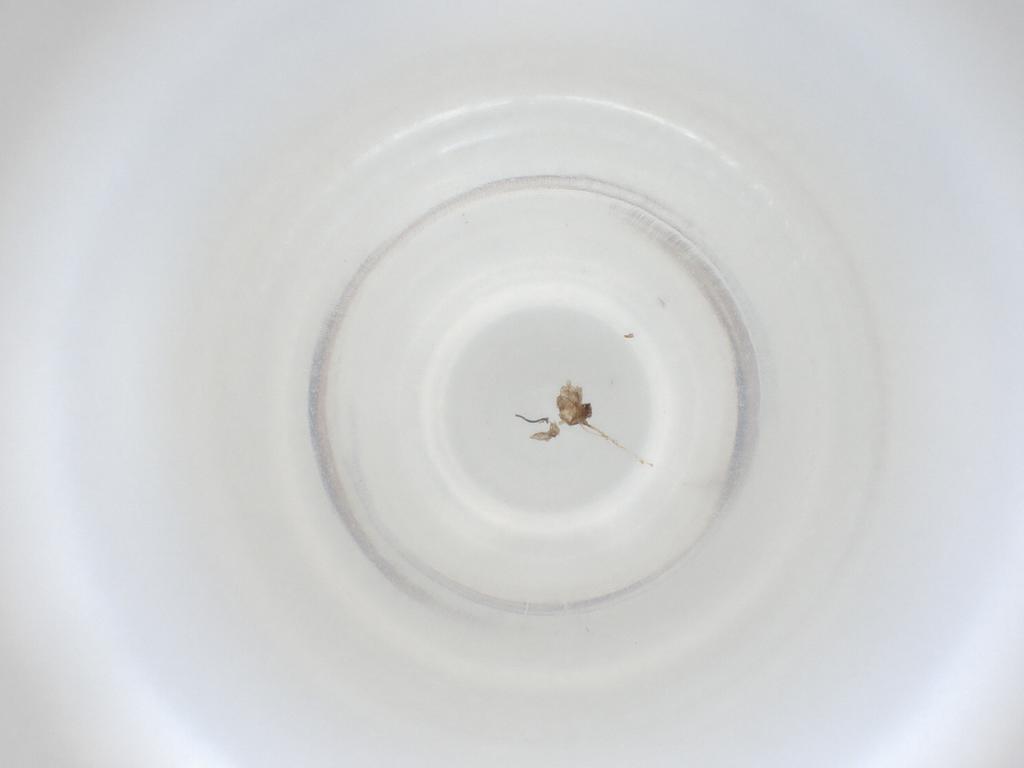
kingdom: Animalia
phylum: Arthropoda
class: Insecta
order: Diptera
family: Cecidomyiidae
